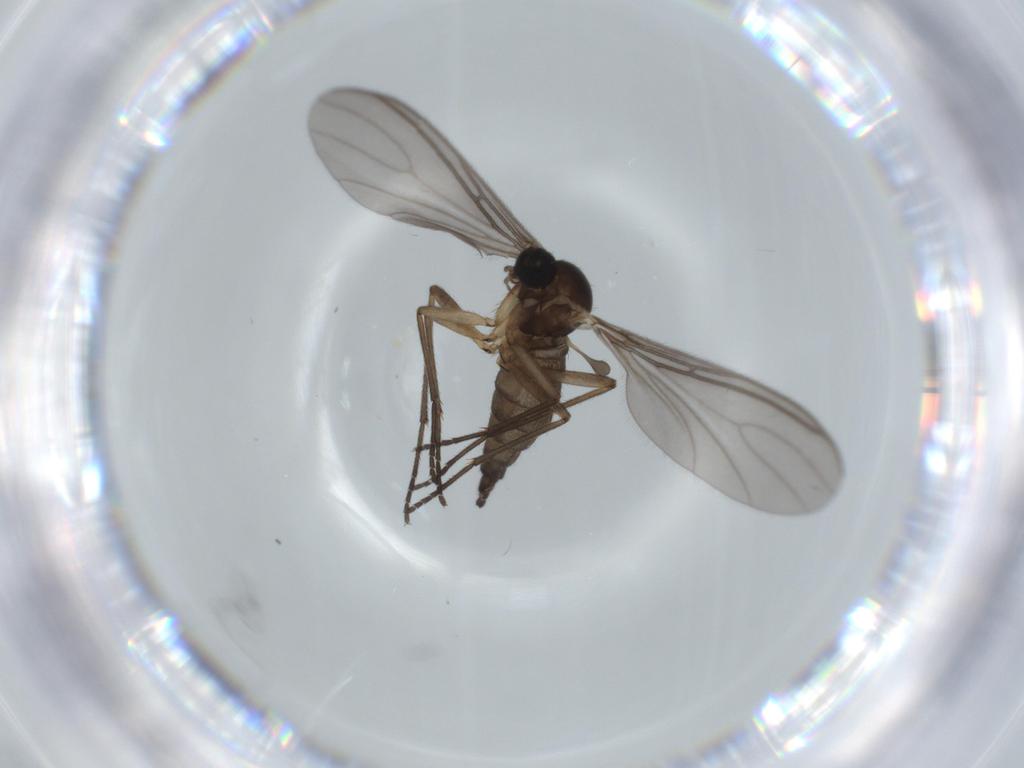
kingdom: Animalia
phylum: Arthropoda
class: Insecta
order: Diptera
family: Sciaridae
